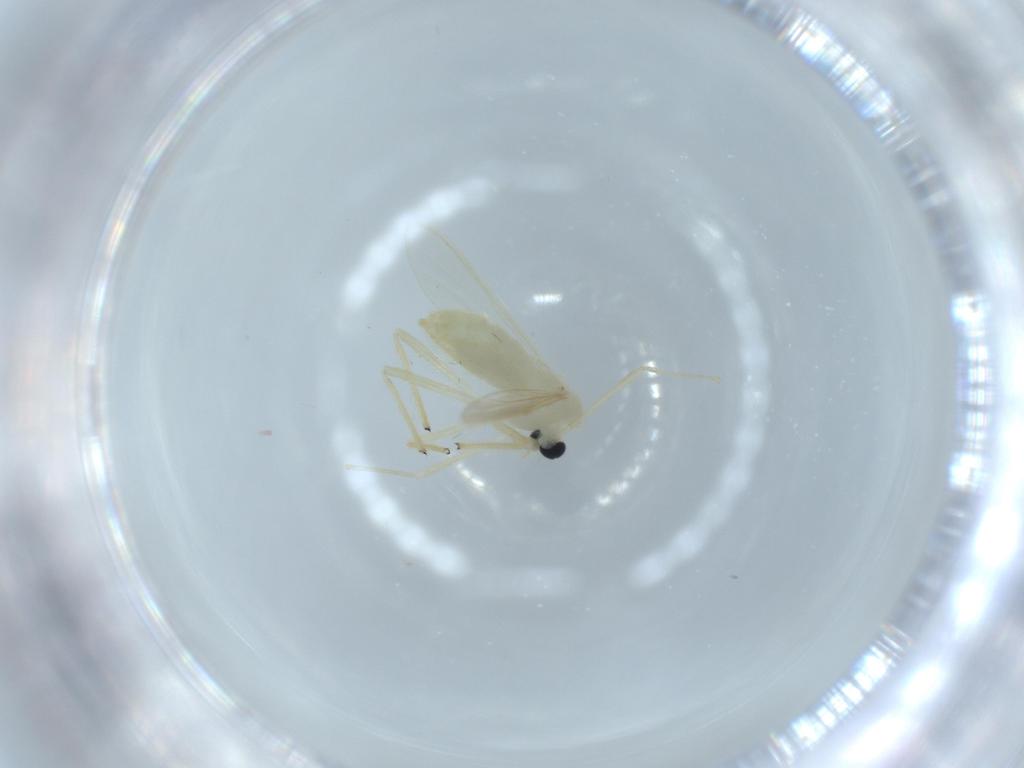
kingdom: Animalia
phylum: Arthropoda
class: Insecta
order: Diptera
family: Chironomidae
